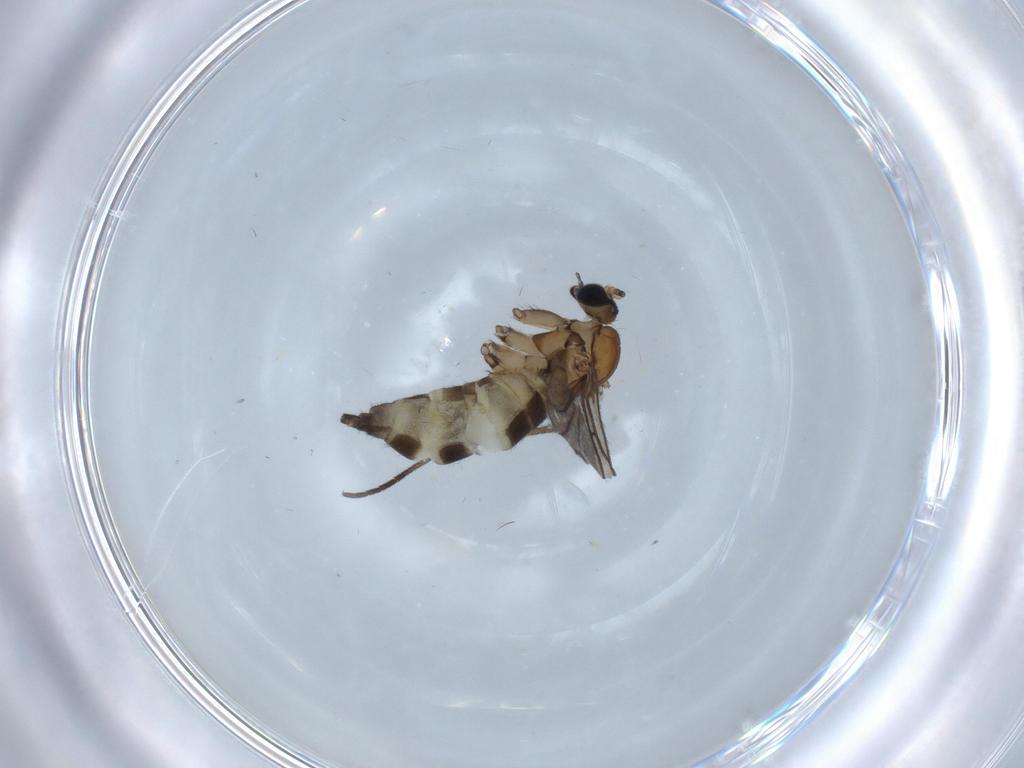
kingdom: Animalia
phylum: Arthropoda
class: Insecta
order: Diptera
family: Sciaridae
